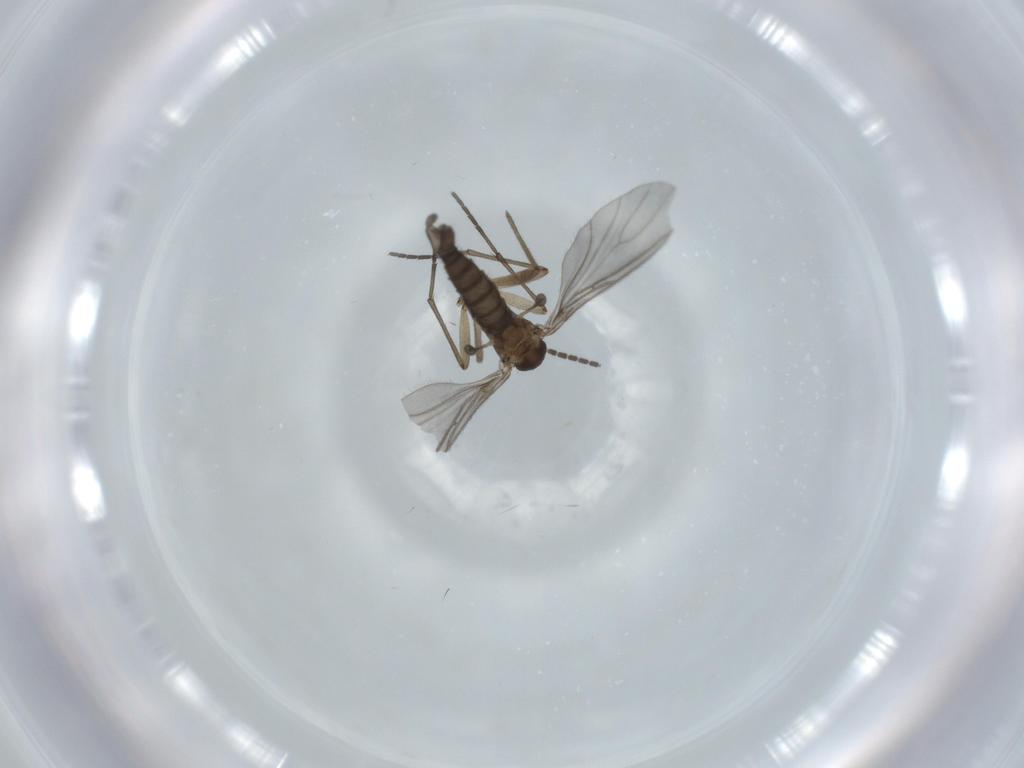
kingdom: Animalia
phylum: Arthropoda
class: Insecta
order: Diptera
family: Sciaridae
